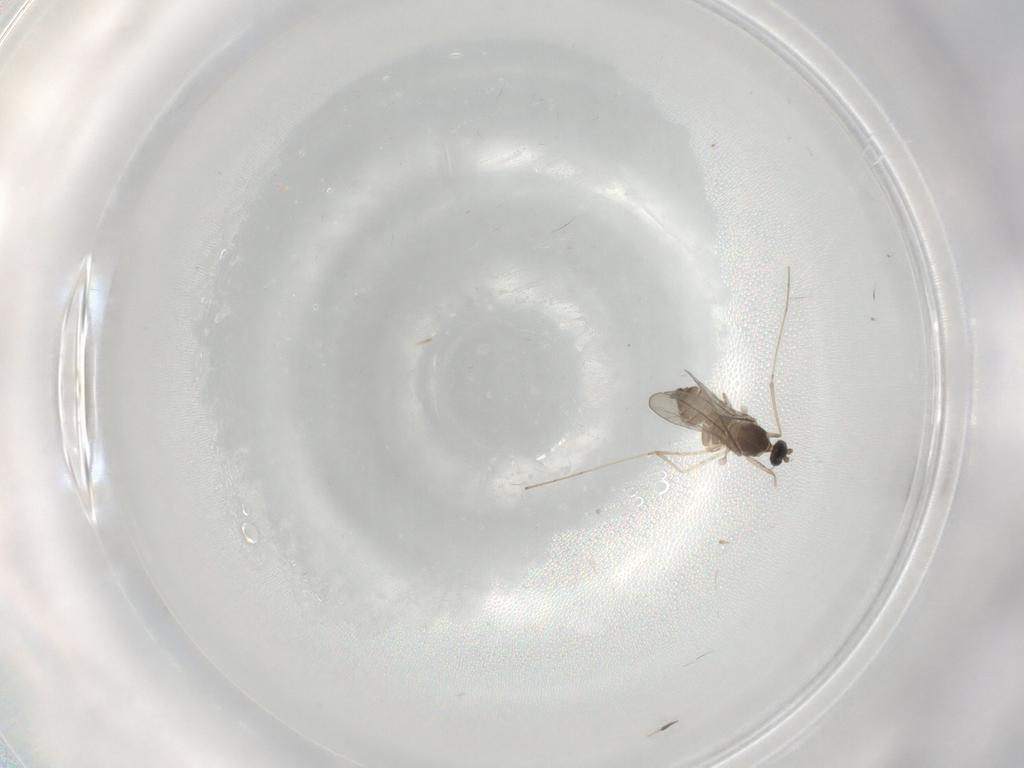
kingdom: Animalia
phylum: Arthropoda
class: Insecta
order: Diptera
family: Cecidomyiidae
